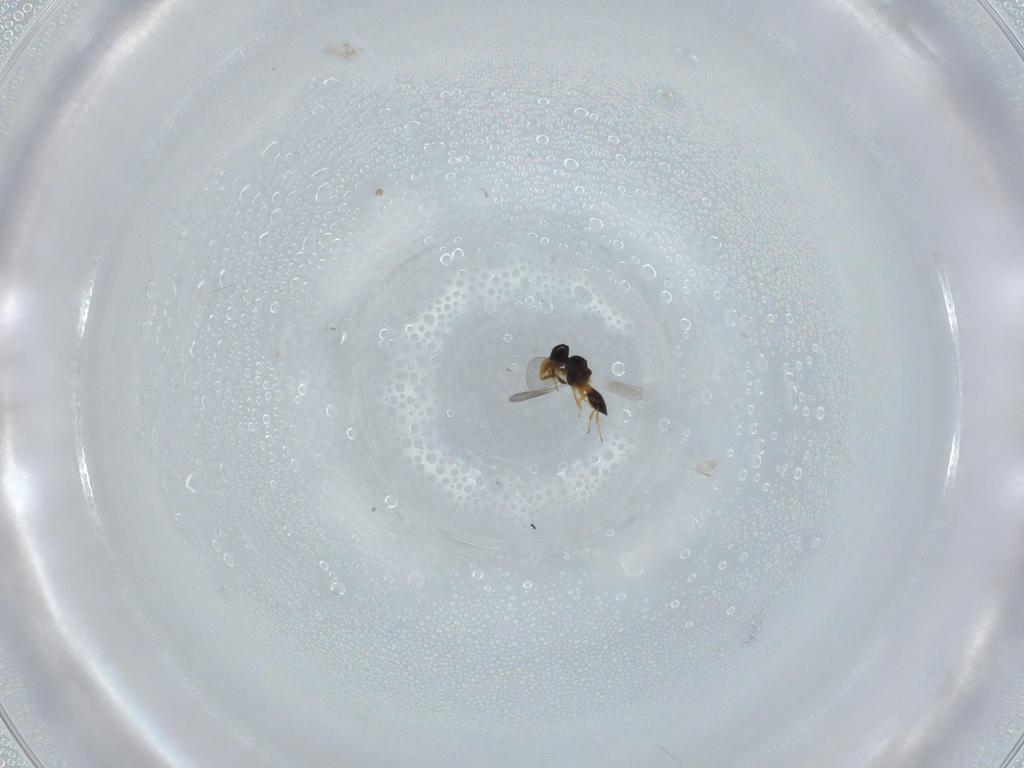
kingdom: Animalia
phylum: Arthropoda
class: Insecta
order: Hymenoptera
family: Platygastridae
